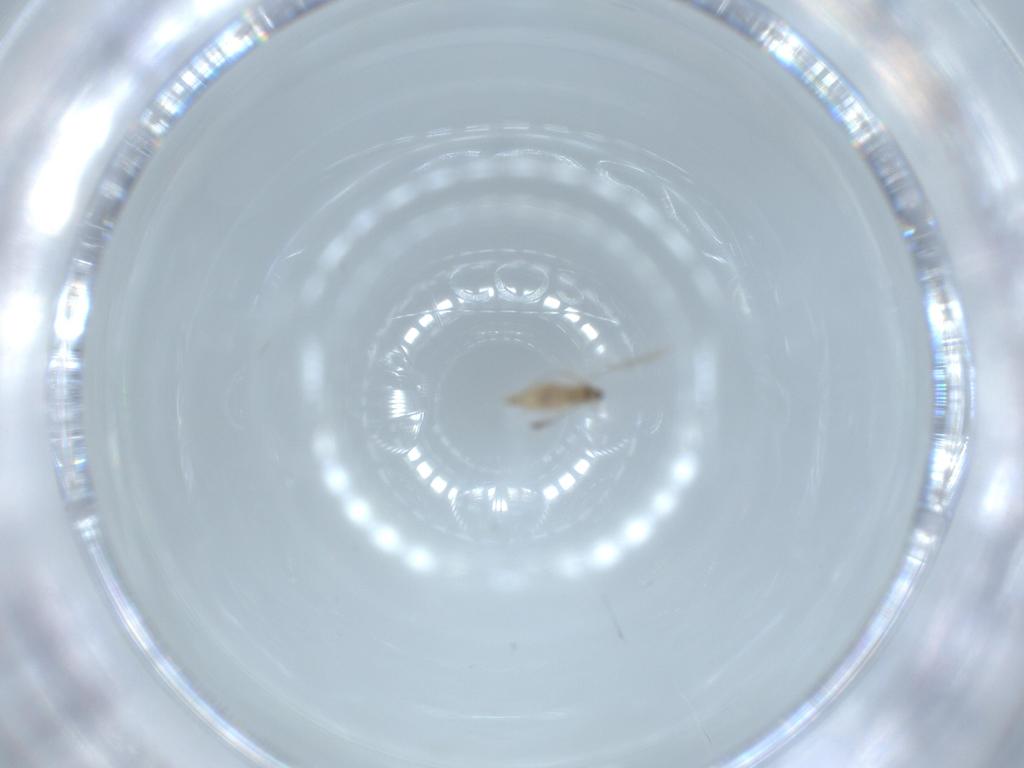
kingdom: Animalia
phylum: Arthropoda
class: Insecta
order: Diptera
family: Cecidomyiidae
